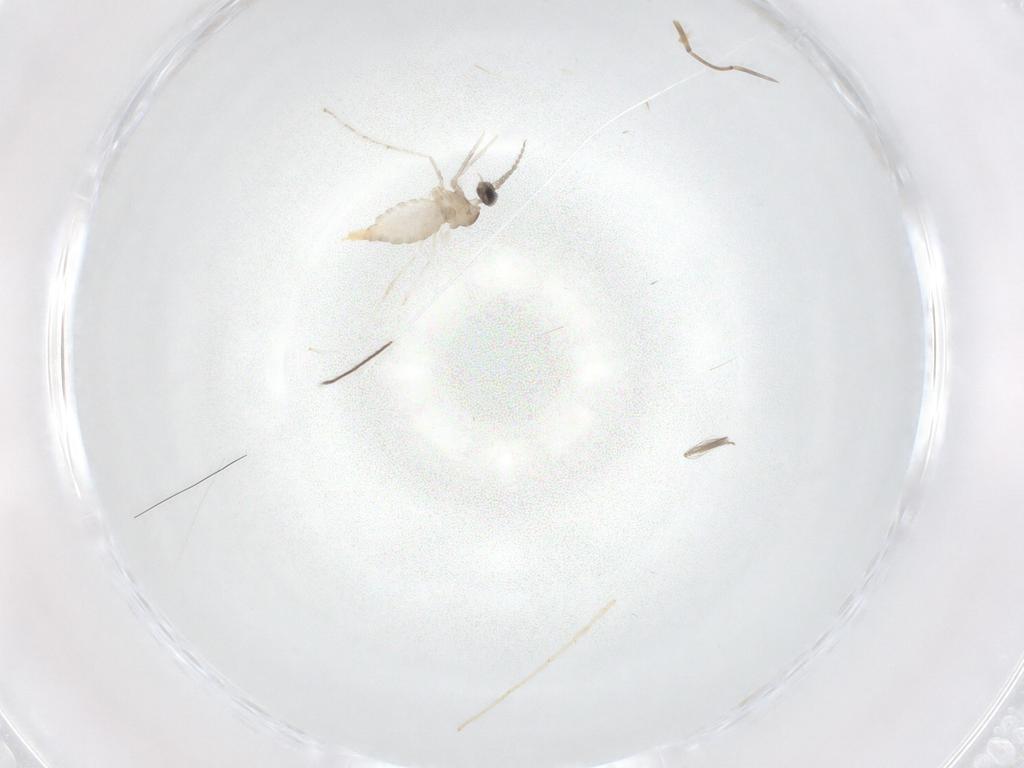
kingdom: Animalia
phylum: Arthropoda
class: Insecta
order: Diptera
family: Cecidomyiidae
